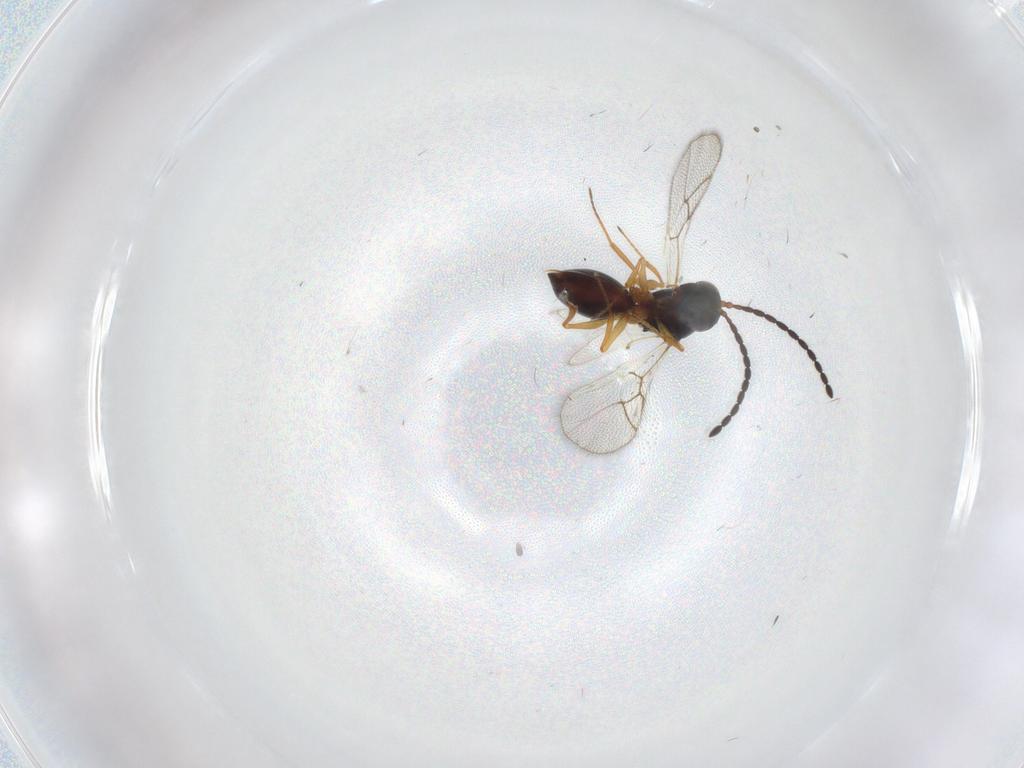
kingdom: Animalia
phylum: Arthropoda
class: Insecta
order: Hymenoptera
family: Figitidae
